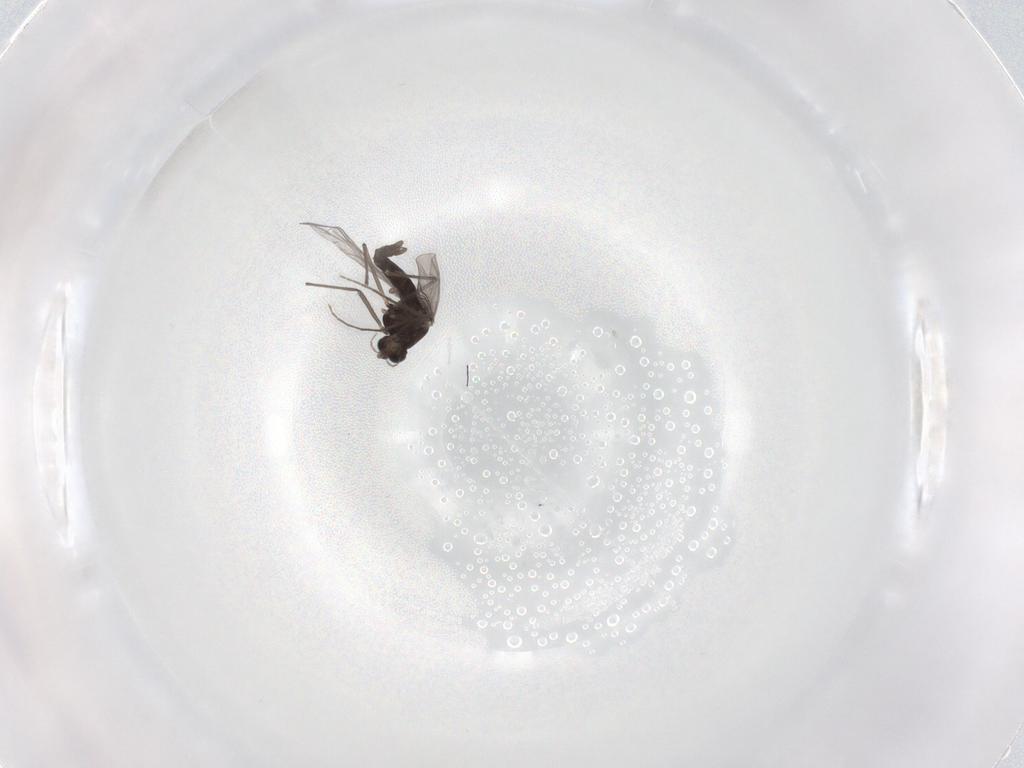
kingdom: Animalia
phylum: Arthropoda
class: Insecta
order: Diptera
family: Chironomidae
